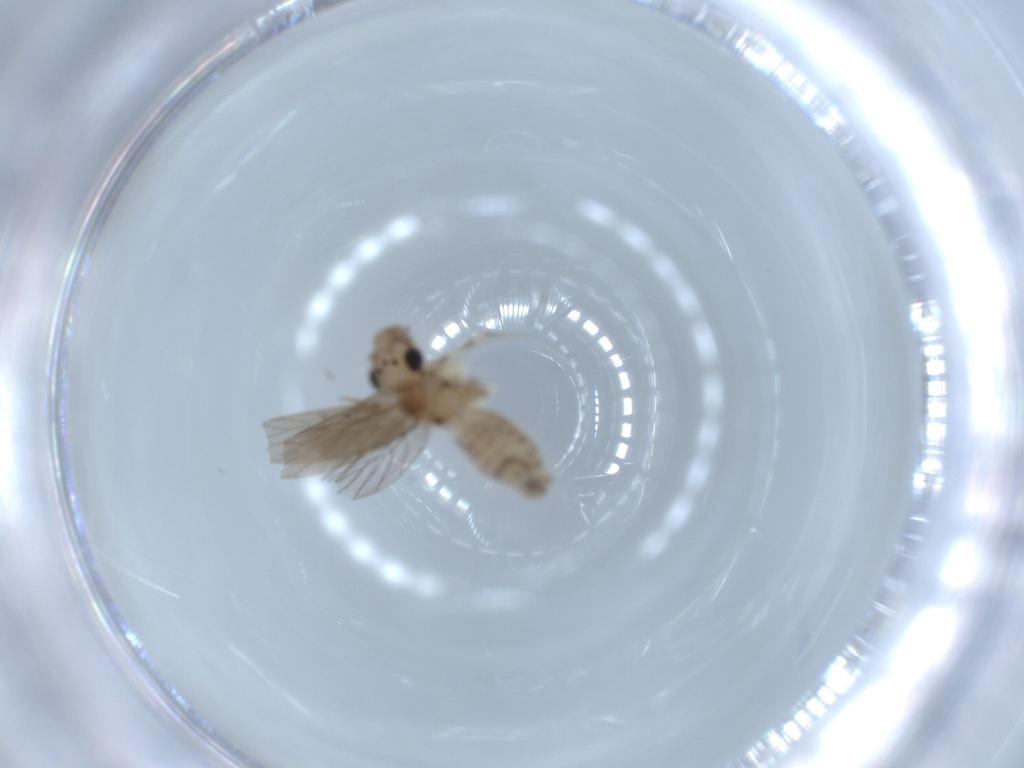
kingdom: Animalia
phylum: Arthropoda
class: Insecta
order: Psocodea
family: Lepidopsocidae
